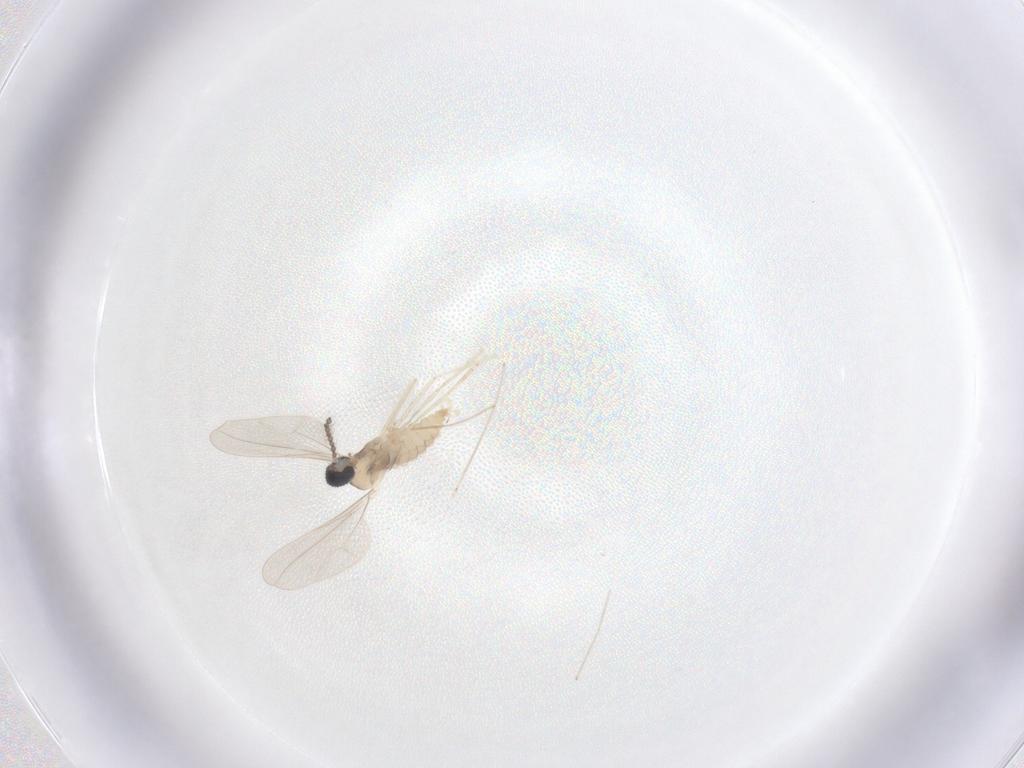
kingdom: Animalia
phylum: Arthropoda
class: Insecta
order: Diptera
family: Cecidomyiidae
